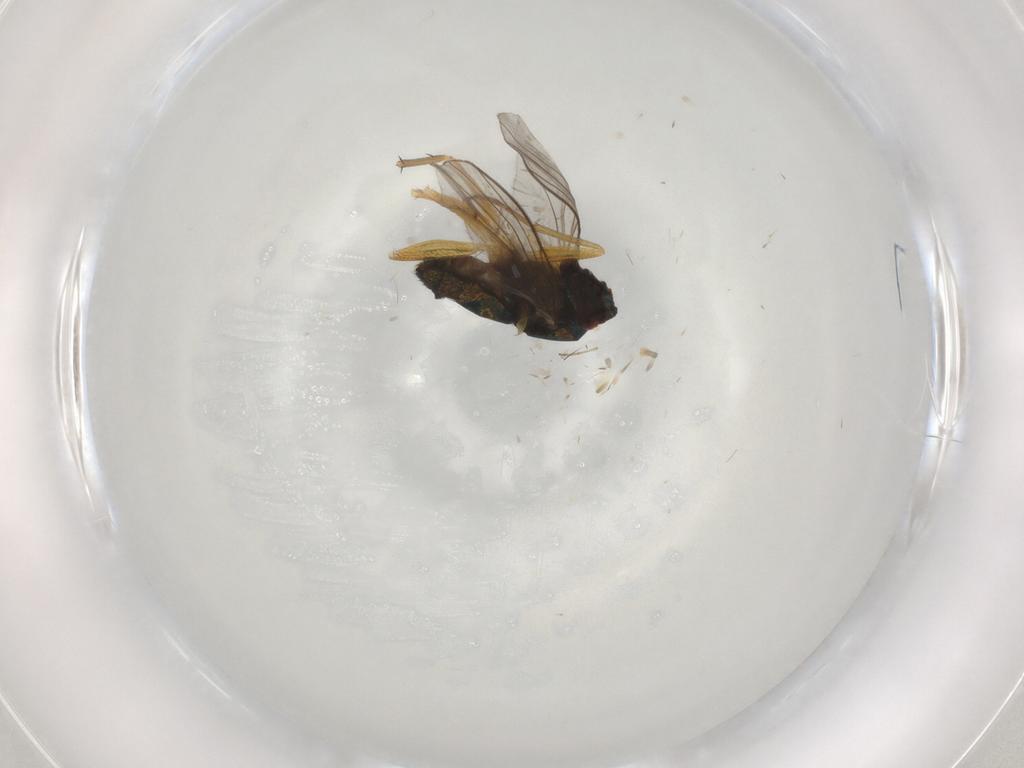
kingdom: Animalia
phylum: Arthropoda
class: Insecta
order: Diptera
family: Dolichopodidae
